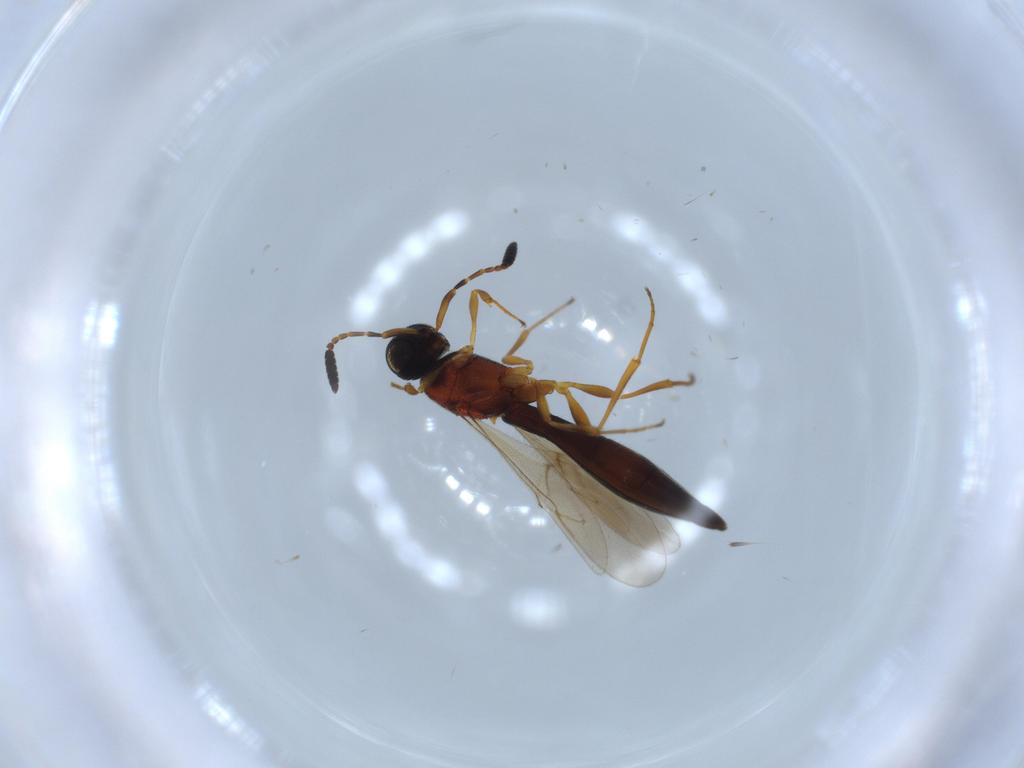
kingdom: Animalia
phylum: Arthropoda
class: Insecta
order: Hymenoptera
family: Scelionidae
